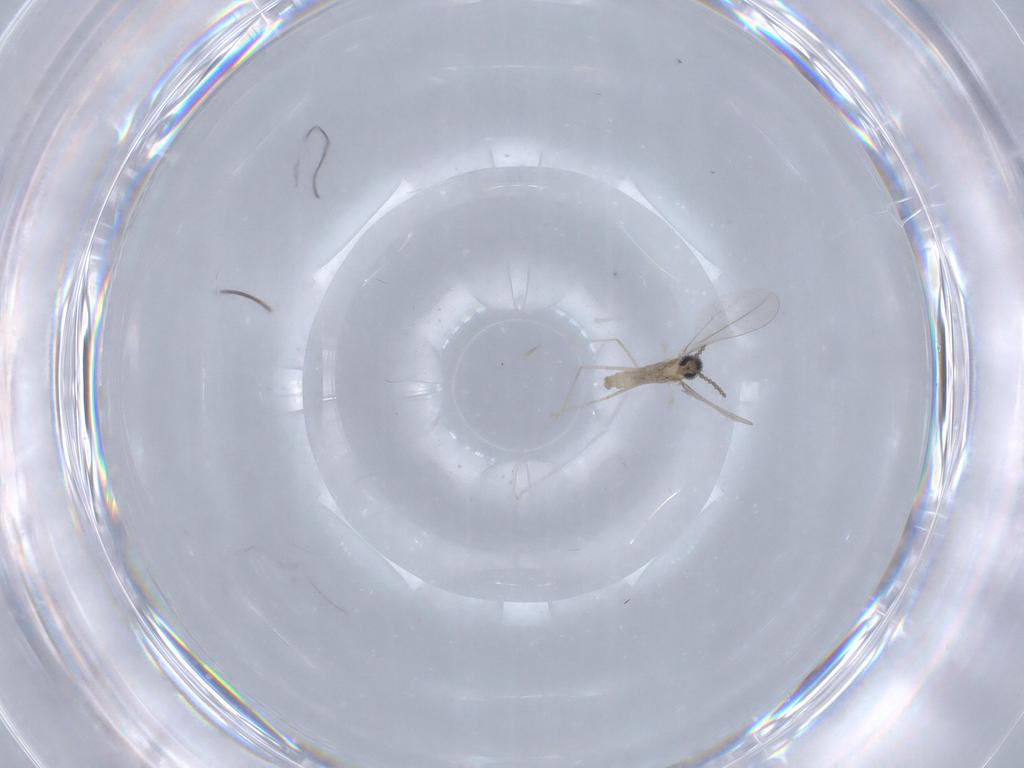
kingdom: Animalia
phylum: Arthropoda
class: Insecta
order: Diptera
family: Cecidomyiidae
